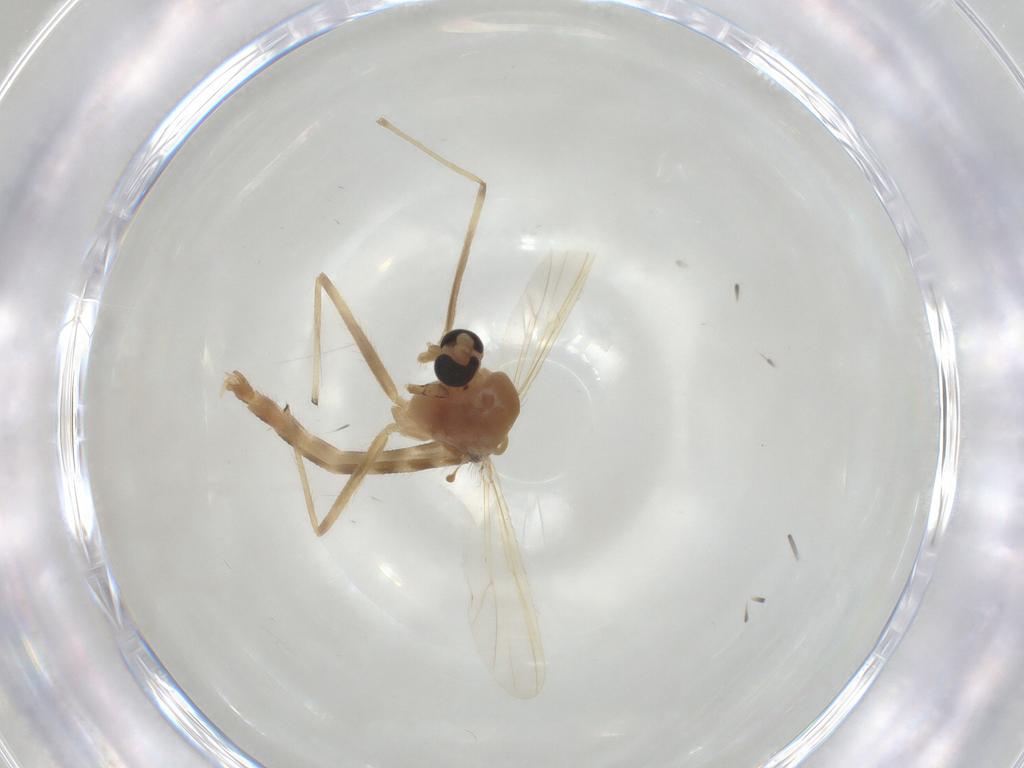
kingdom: Animalia
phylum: Arthropoda
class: Insecta
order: Diptera
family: Chironomidae
